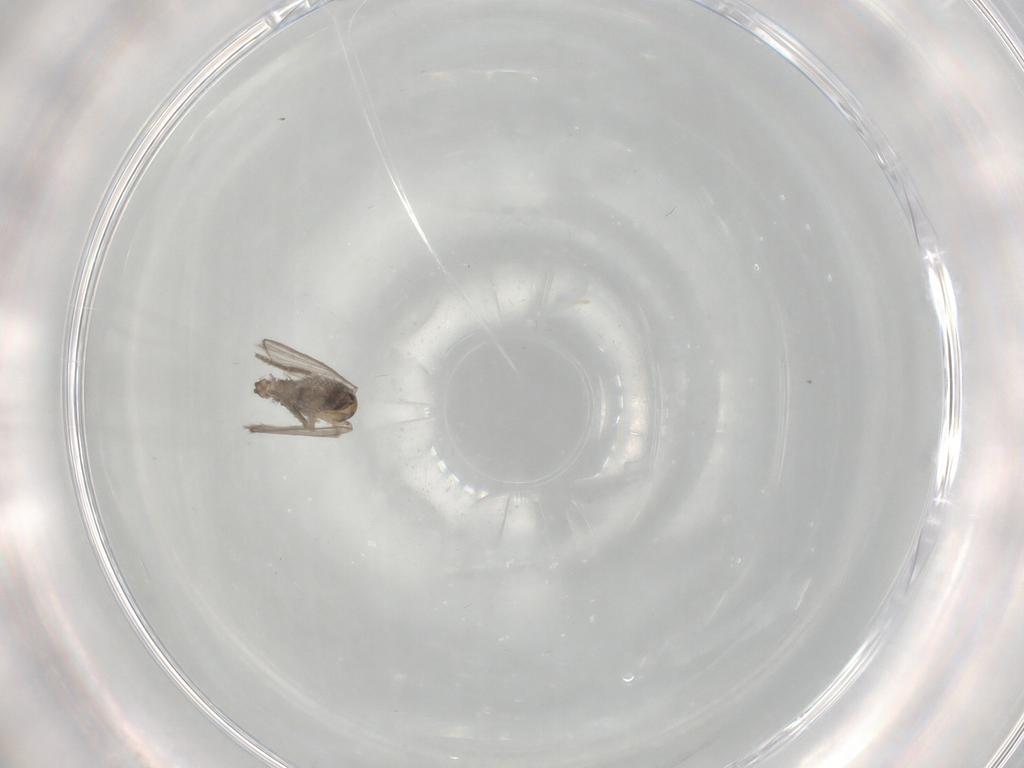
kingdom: Animalia
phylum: Arthropoda
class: Insecta
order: Diptera
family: Psychodidae
